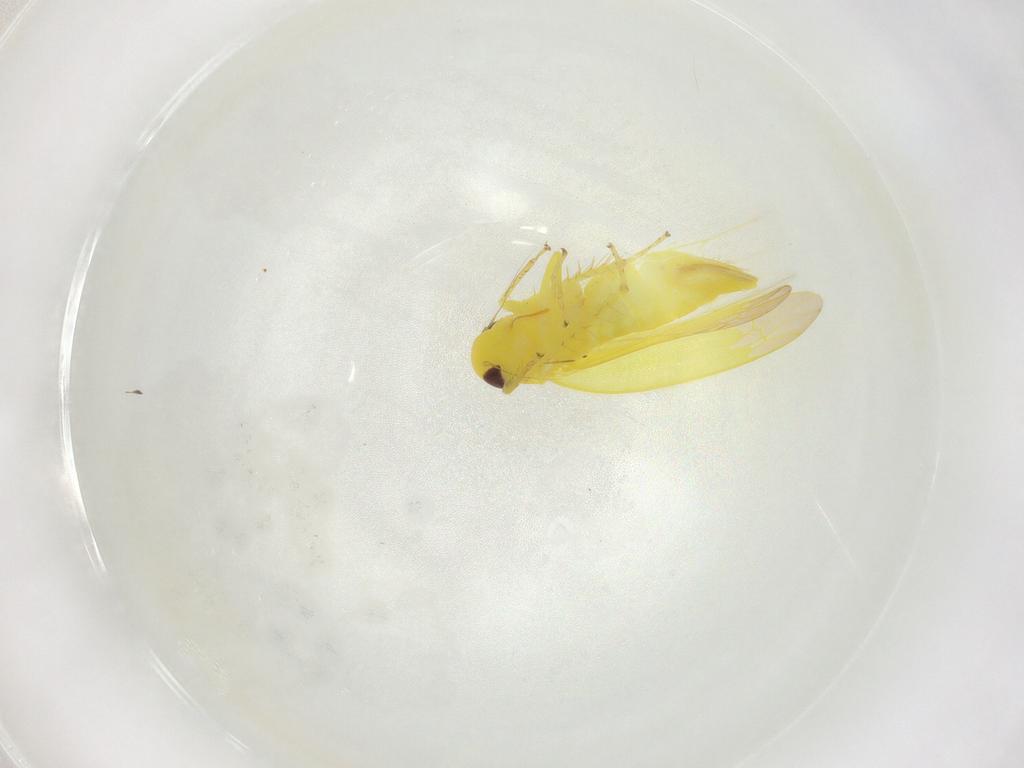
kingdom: Animalia
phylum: Arthropoda
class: Insecta
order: Hemiptera
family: Cicadellidae
